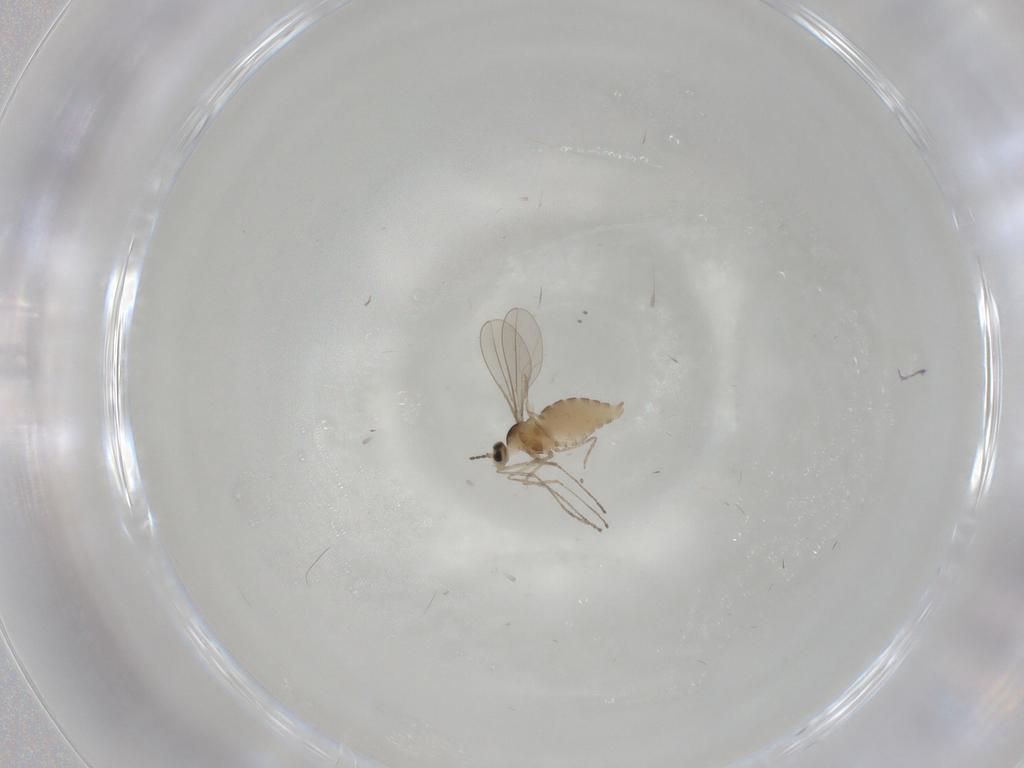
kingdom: Animalia
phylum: Arthropoda
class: Insecta
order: Diptera
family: Cecidomyiidae
